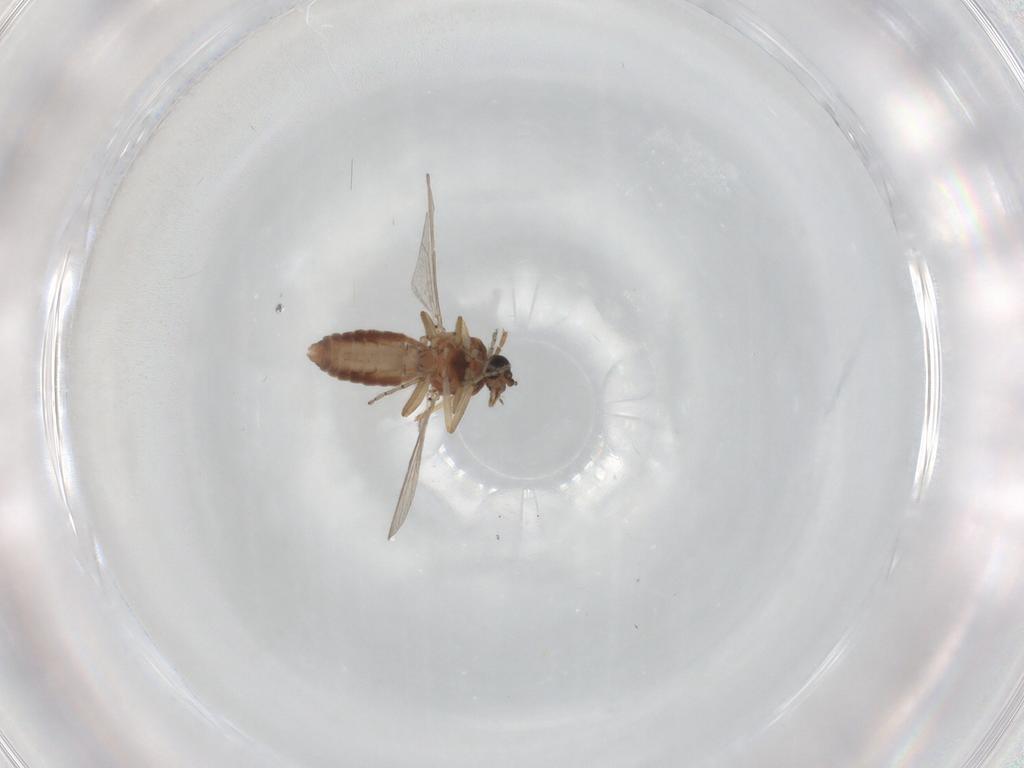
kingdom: Animalia
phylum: Arthropoda
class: Insecta
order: Diptera
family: Ceratopogonidae
